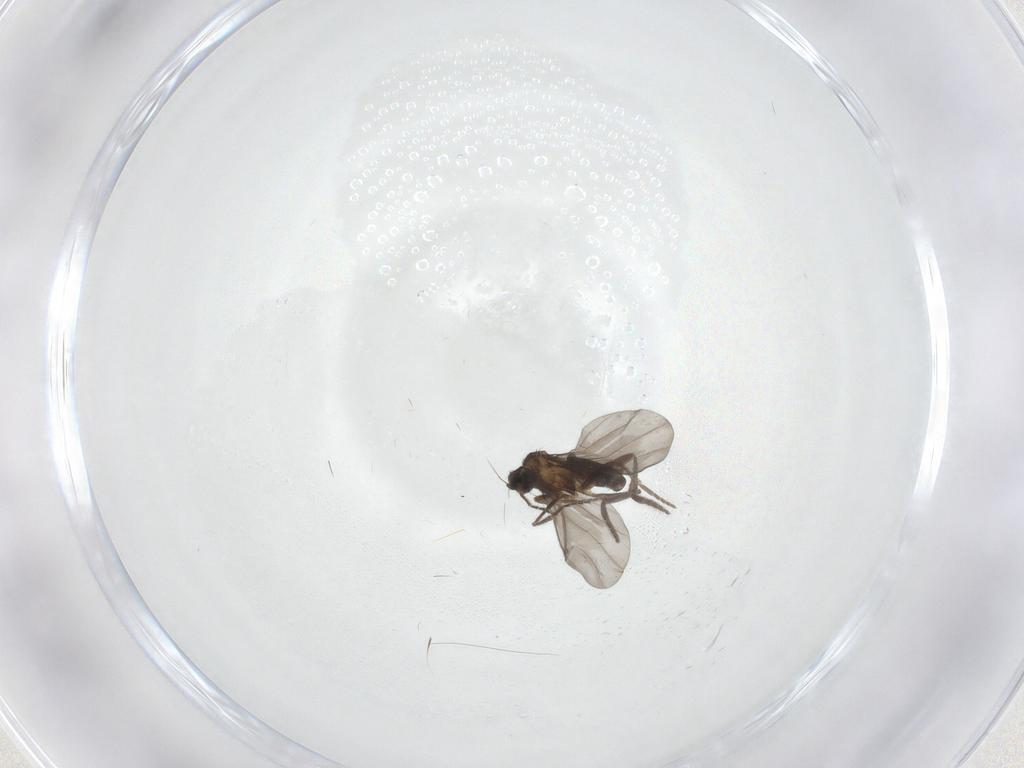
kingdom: Animalia
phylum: Arthropoda
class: Insecta
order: Diptera
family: Phoridae
